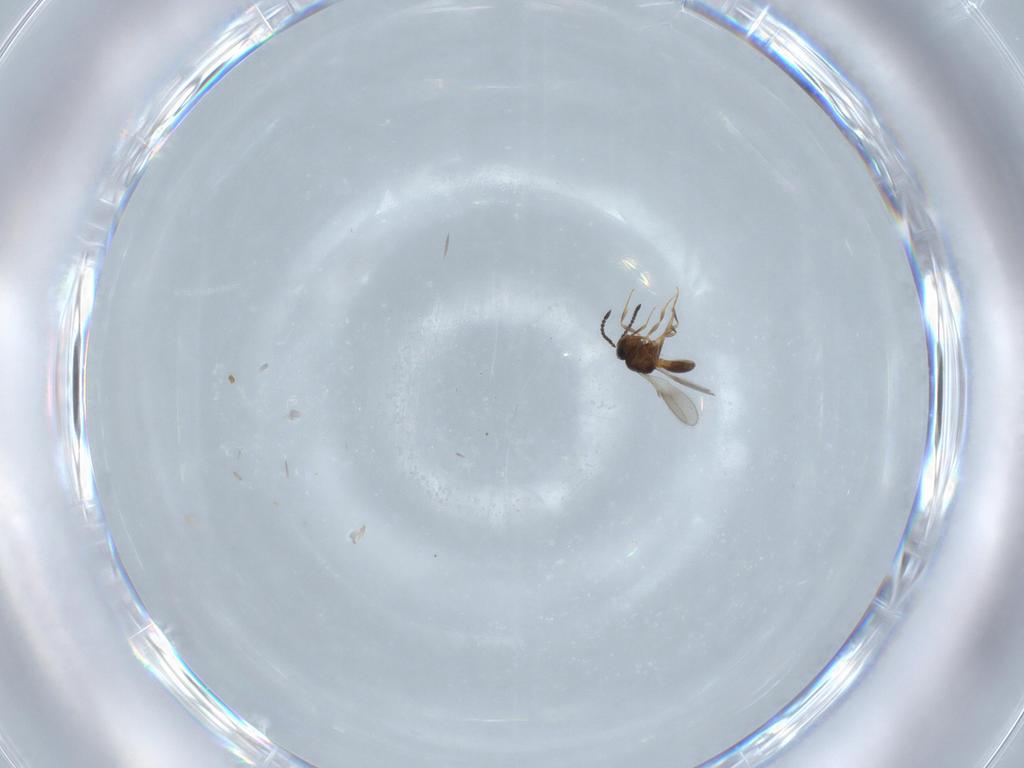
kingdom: Animalia
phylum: Arthropoda
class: Insecta
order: Hymenoptera
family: Scelionidae
